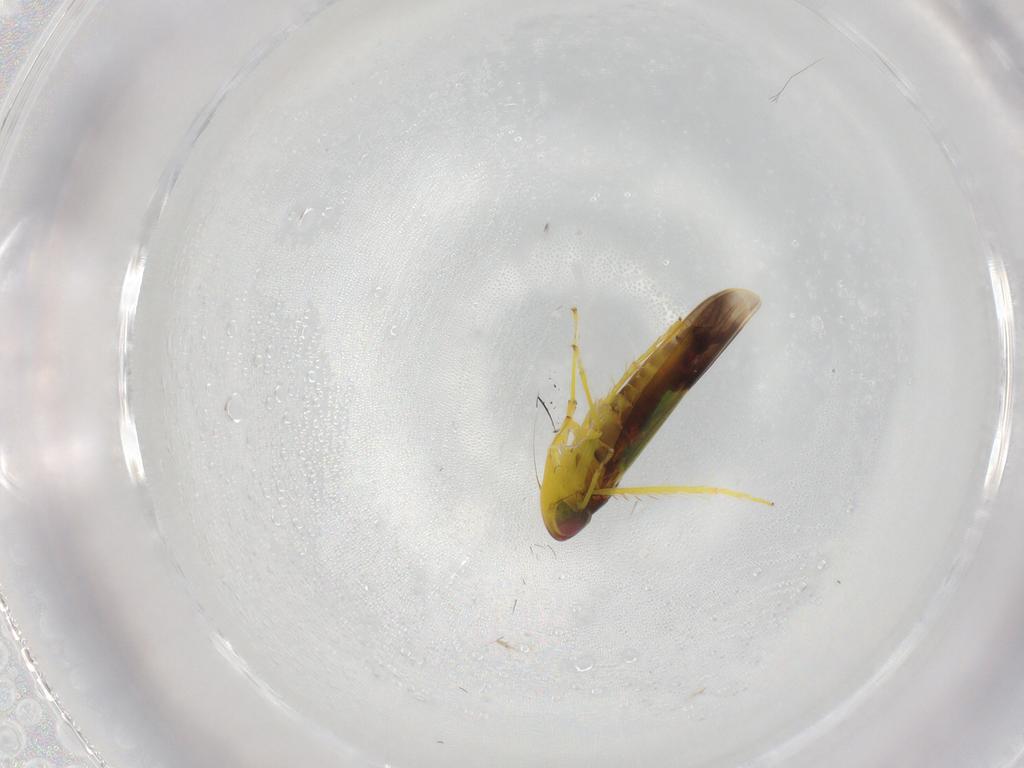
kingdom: Animalia
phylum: Arthropoda
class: Insecta
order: Hemiptera
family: Cicadellidae
